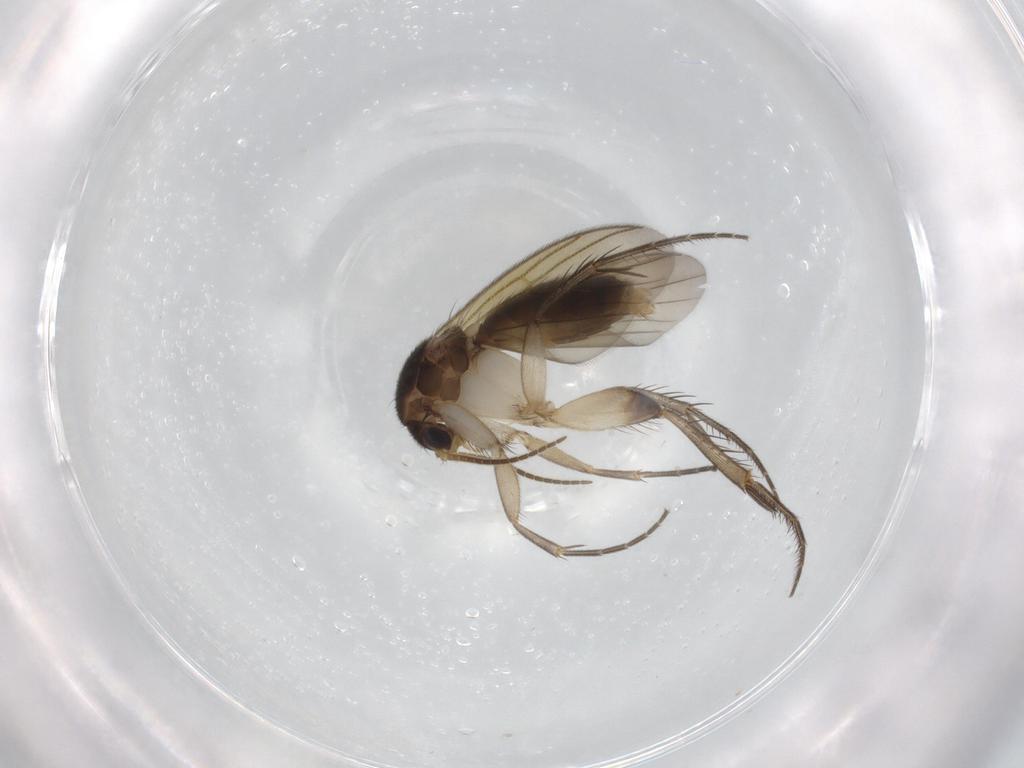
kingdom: Animalia
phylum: Arthropoda
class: Insecta
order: Diptera
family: Mycetophilidae
